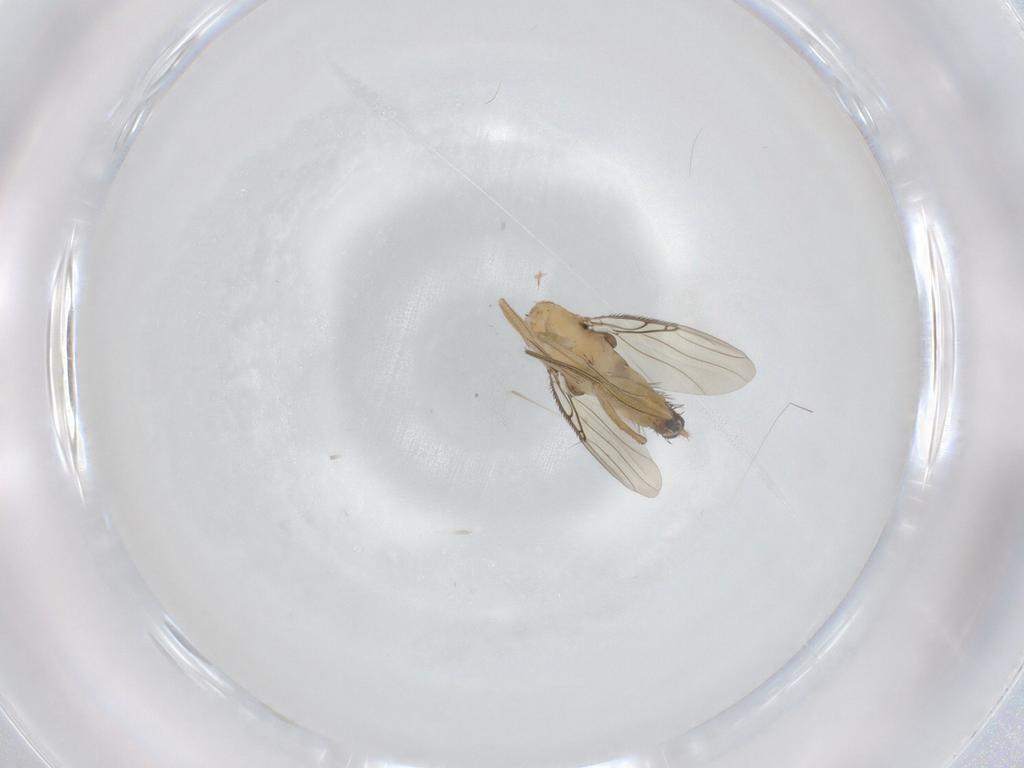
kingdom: Animalia
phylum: Arthropoda
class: Insecta
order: Diptera
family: Phoridae
